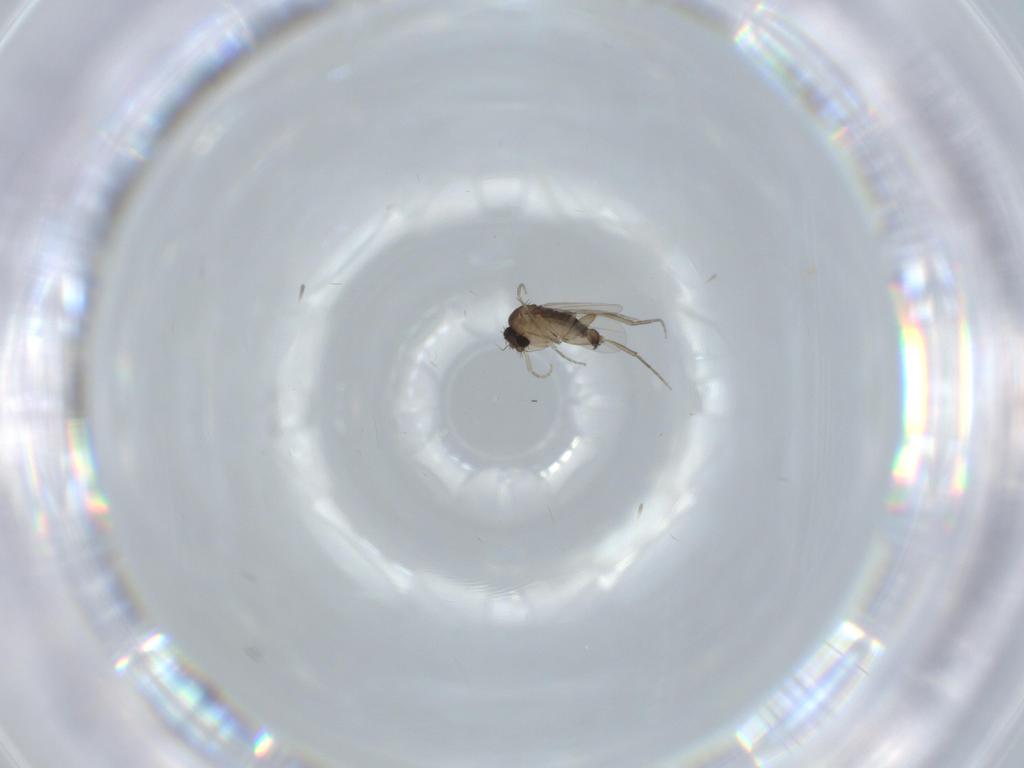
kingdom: Animalia
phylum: Arthropoda
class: Insecta
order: Diptera
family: Phoridae
